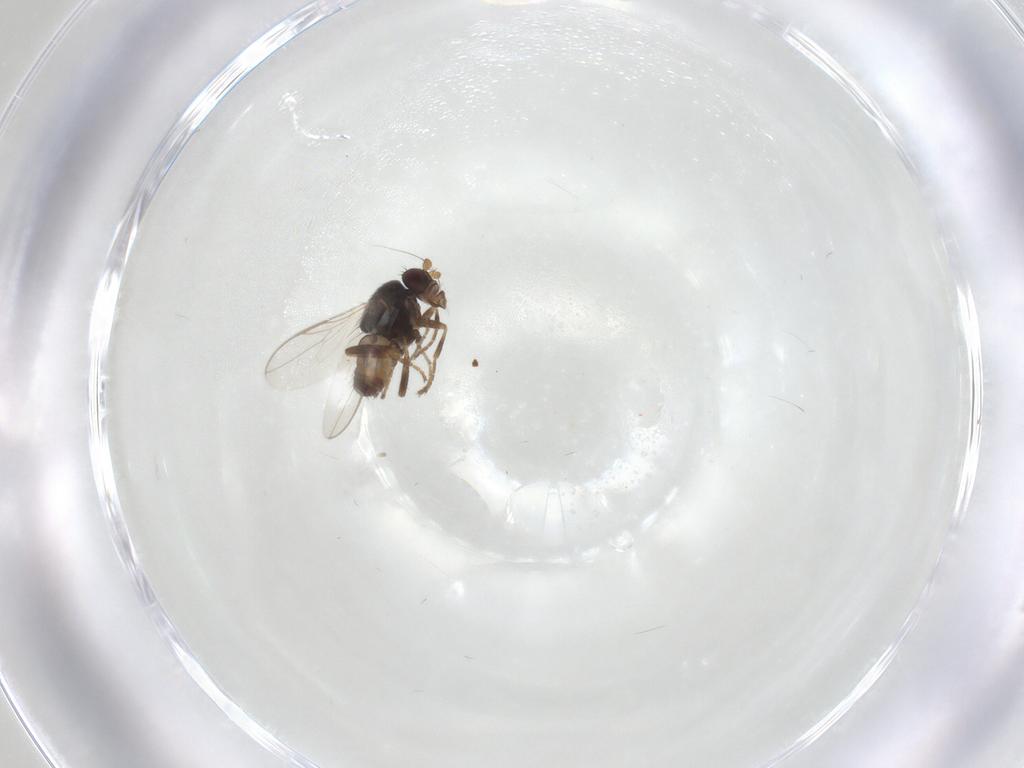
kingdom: Animalia
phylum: Arthropoda
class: Insecta
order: Diptera
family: Sphaeroceridae
